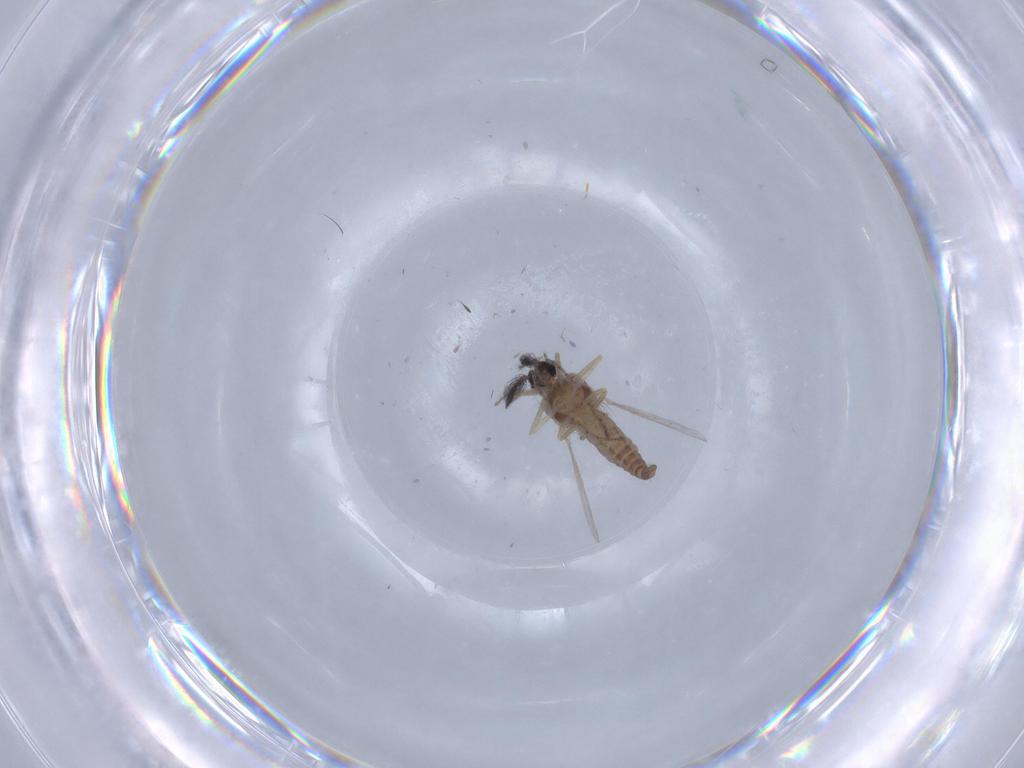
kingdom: Animalia
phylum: Arthropoda
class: Insecta
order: Diptera
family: Ceratopogonidae
